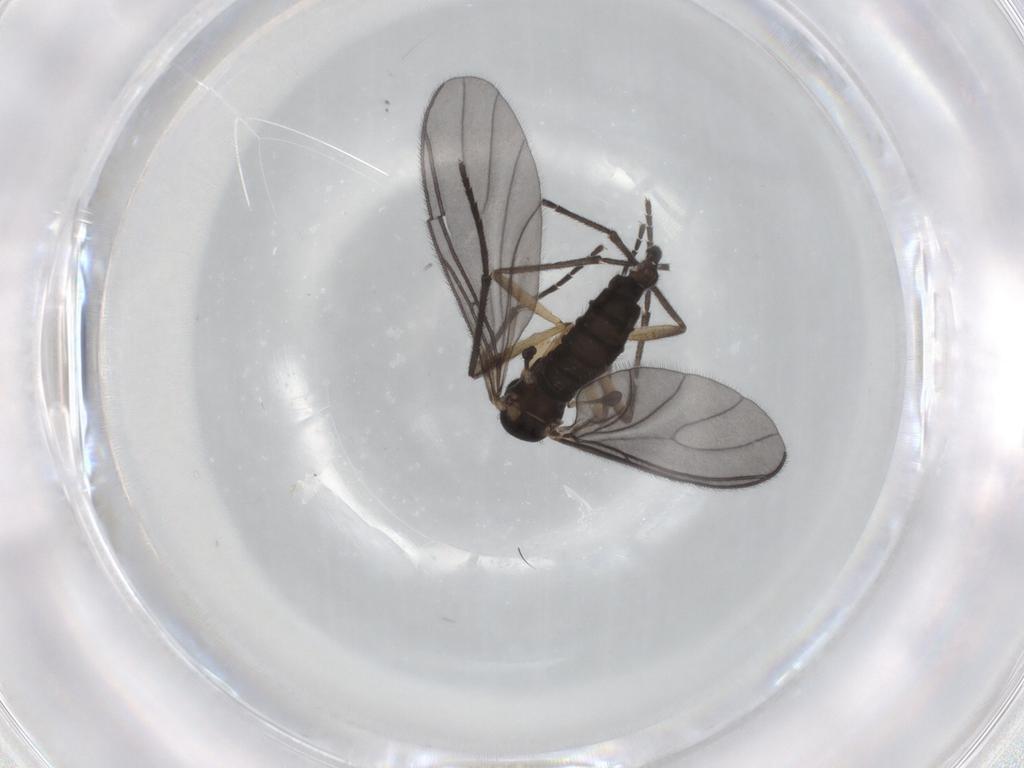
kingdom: Animalia
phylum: Arthropoda
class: Insecta
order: Diptera
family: Sciaridae
